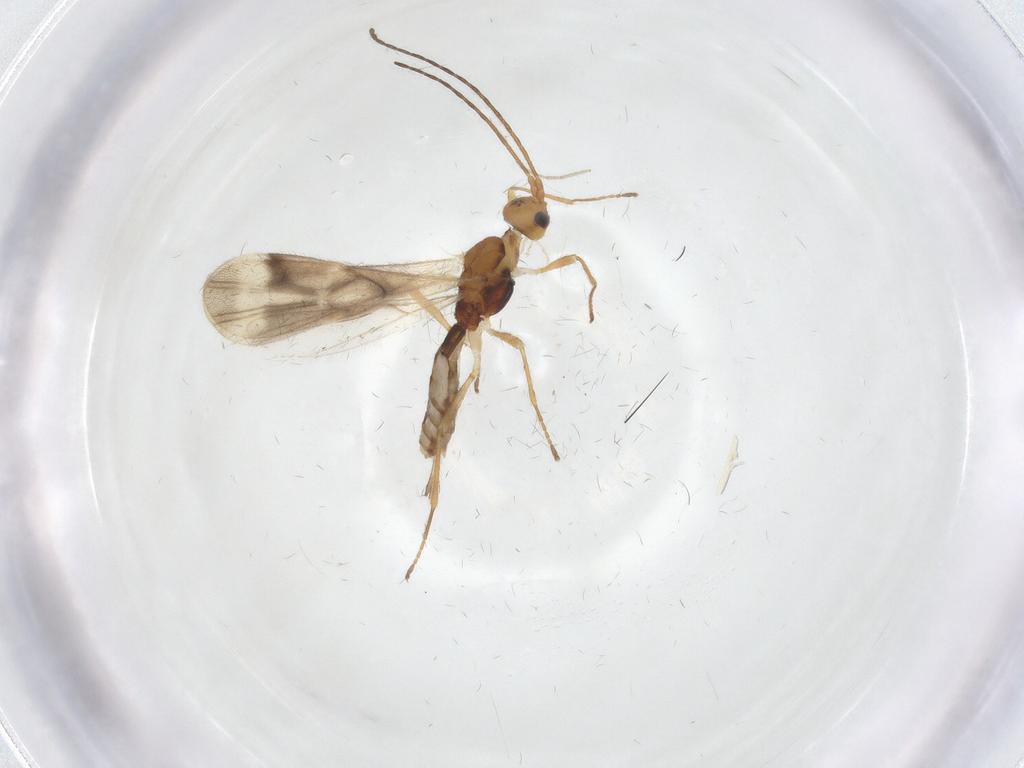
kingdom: Animalia
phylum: Arthropoda
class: Insecta
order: Hymenoptera
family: Braconidae
